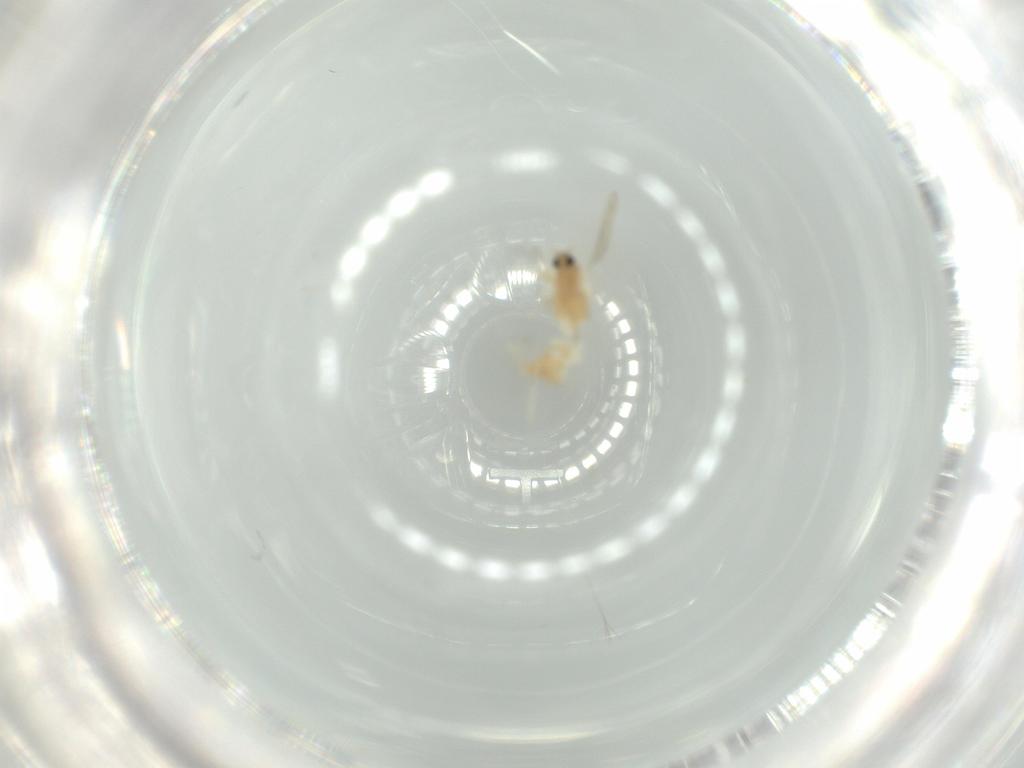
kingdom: Animalia
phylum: Arthropoda
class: Insecta
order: Diptera
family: Cecidomyiidae
